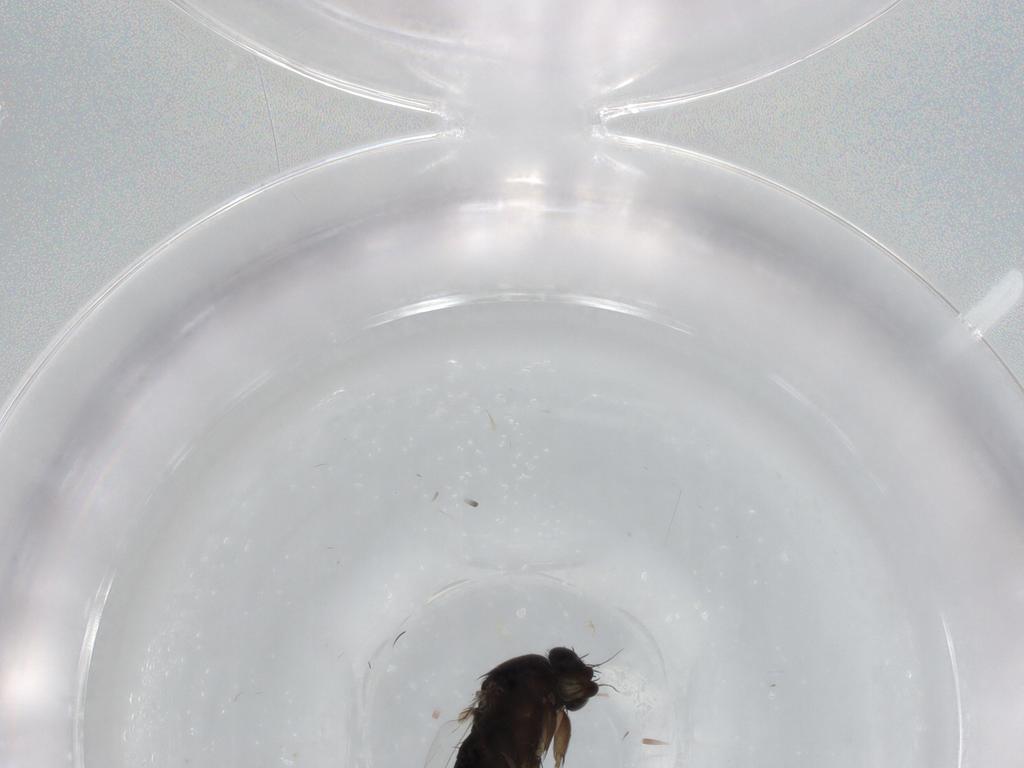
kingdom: Animalia
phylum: Arthropoda
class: Insecta
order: Diptera
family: Phoridae
